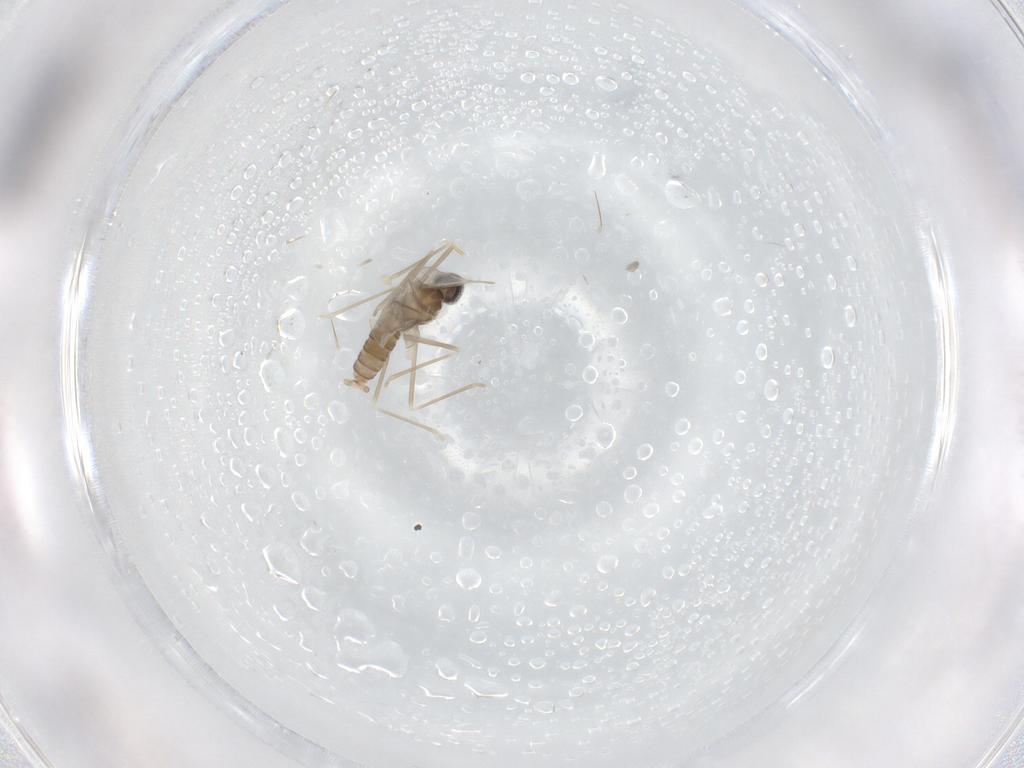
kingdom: Animalia
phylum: Arthropoda
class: Insecta
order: Diptera
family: Cecidomyiidae
